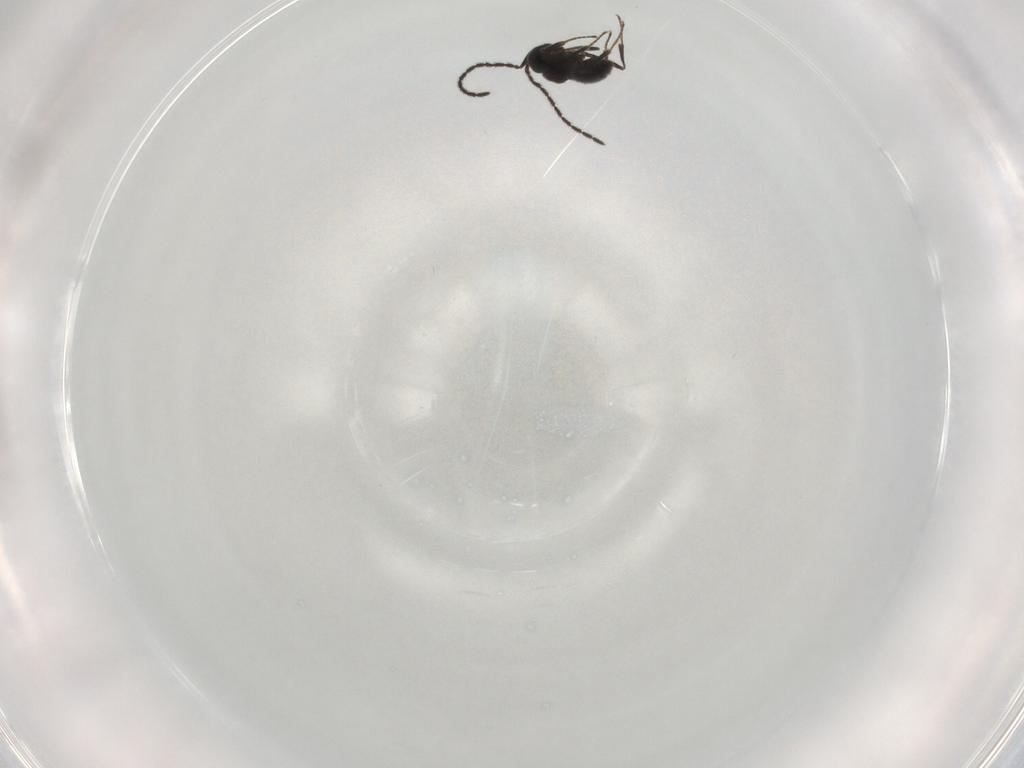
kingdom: Animalia
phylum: Arthropoda
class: Insecta
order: Hymenoptera
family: Scelionidae
